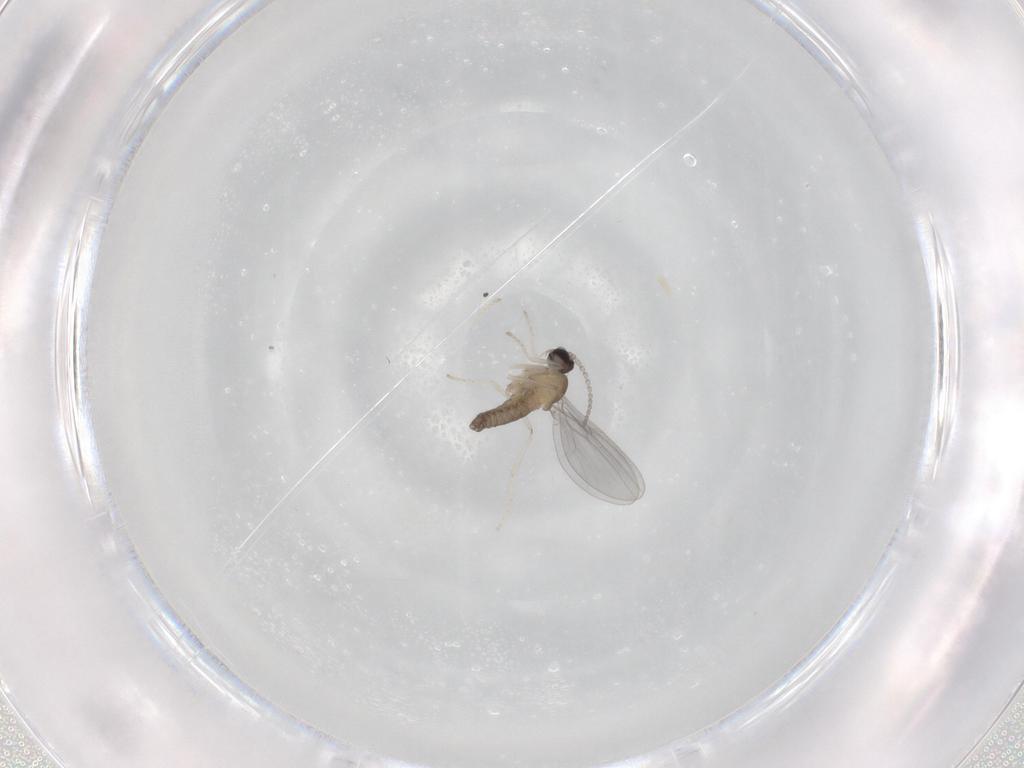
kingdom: Animalia
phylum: Arthropoda
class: Insecta
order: Diptera
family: Cecidomyiidae
